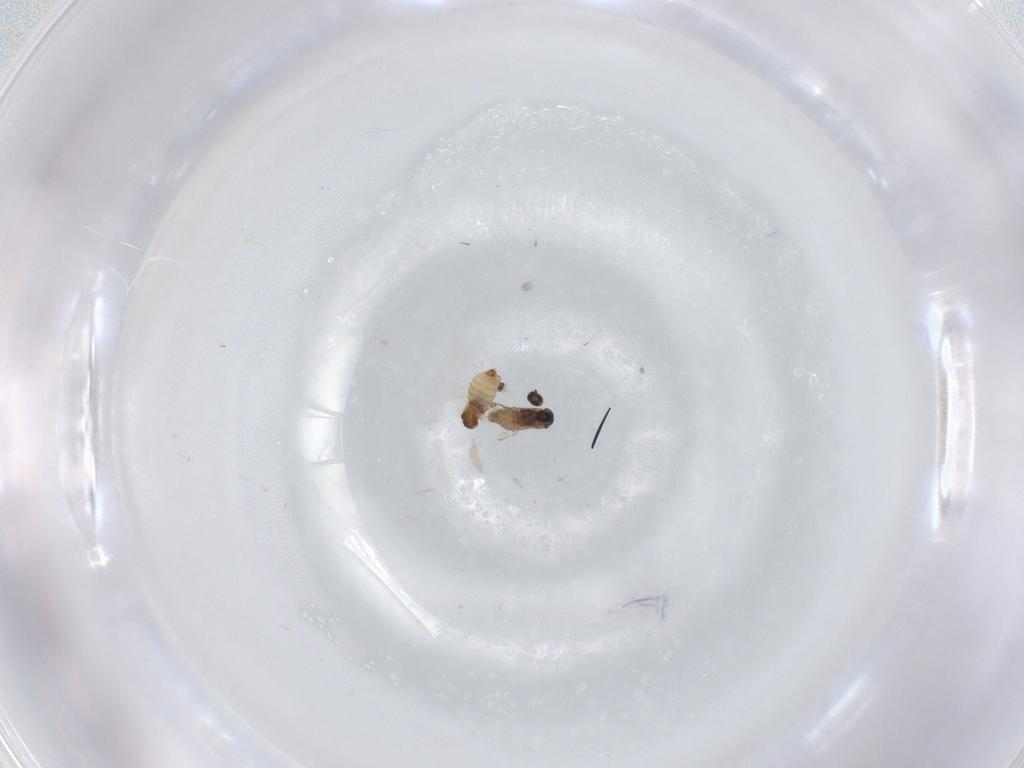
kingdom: Animalia
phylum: Arthropoda
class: Insecta
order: Diptera
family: Cecidomyiidae
